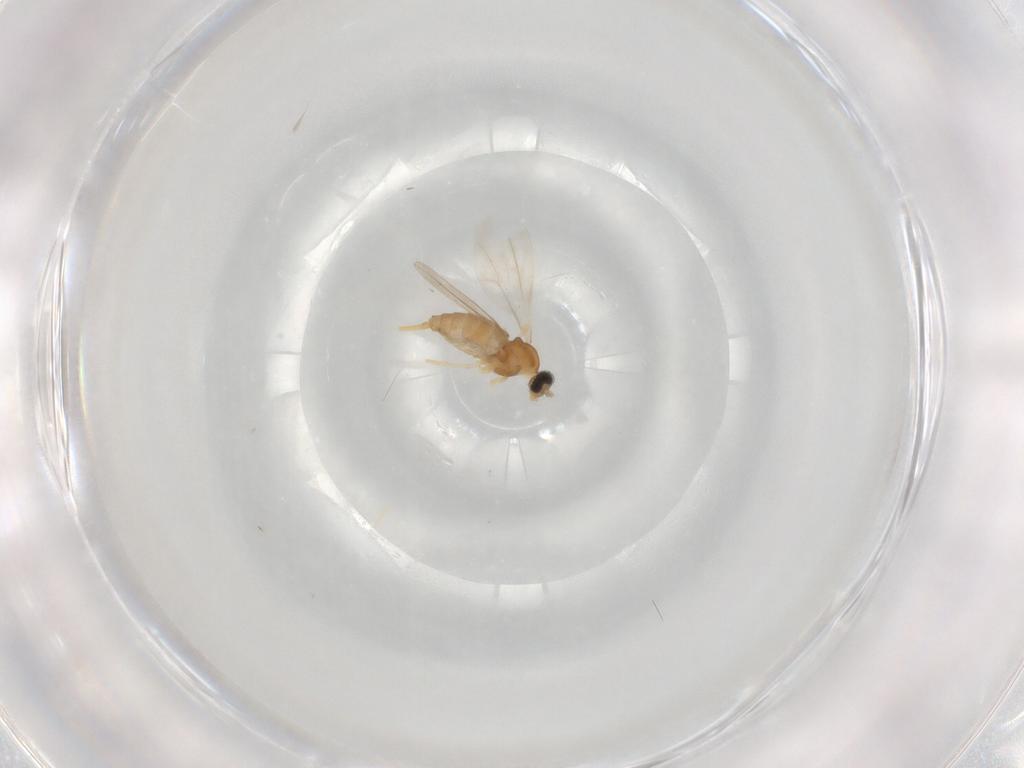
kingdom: Animalia
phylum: Arthropoda
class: Insecta
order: Diptera
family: Cecidomyiidae
